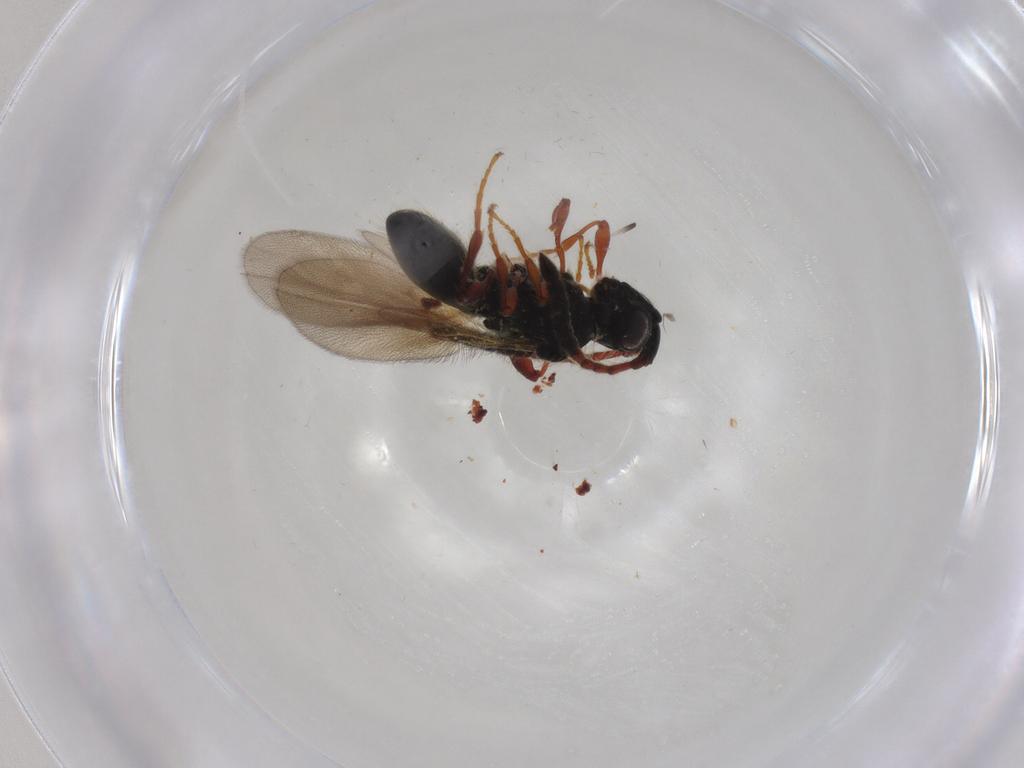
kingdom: Animalia
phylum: Arthropoda
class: Insecta
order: Hymenoptera
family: Diapriidae
